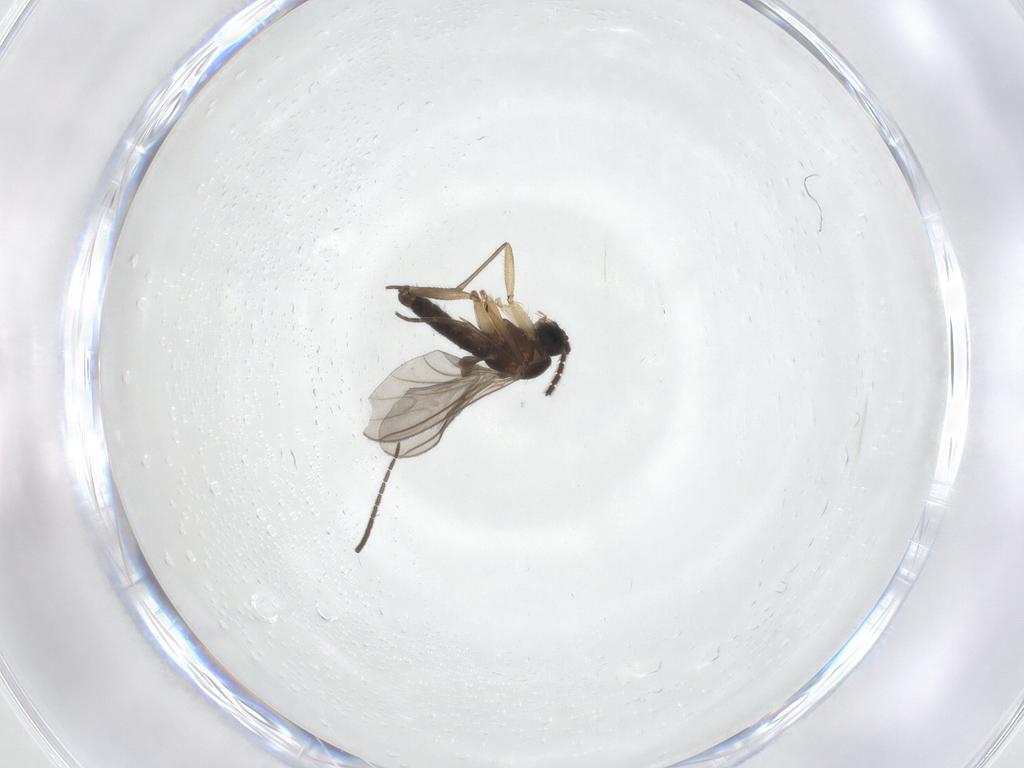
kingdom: Animalia
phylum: Arthropoda
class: Insecta
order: Diptera
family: Sciaridae
